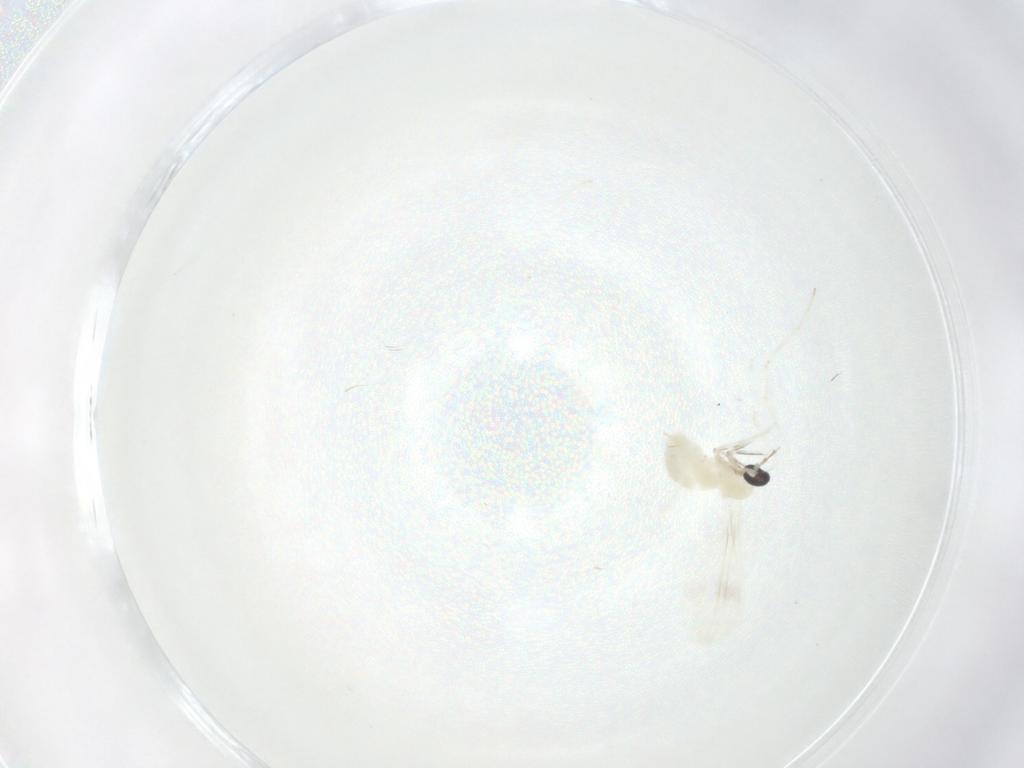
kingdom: Animalia
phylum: Arthropoda
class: Insecta
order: Diptera
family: Cecidomyiidae
